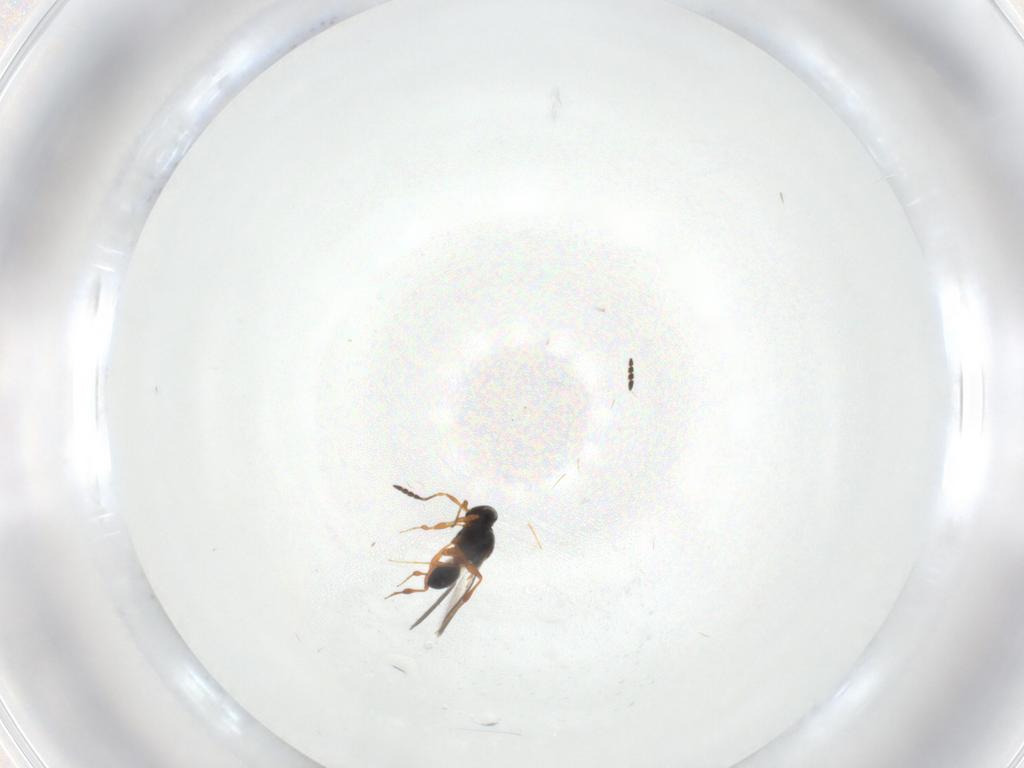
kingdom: Animalia
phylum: Arthropoda
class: Insecta
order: Hymenoptera
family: Platygastridae
